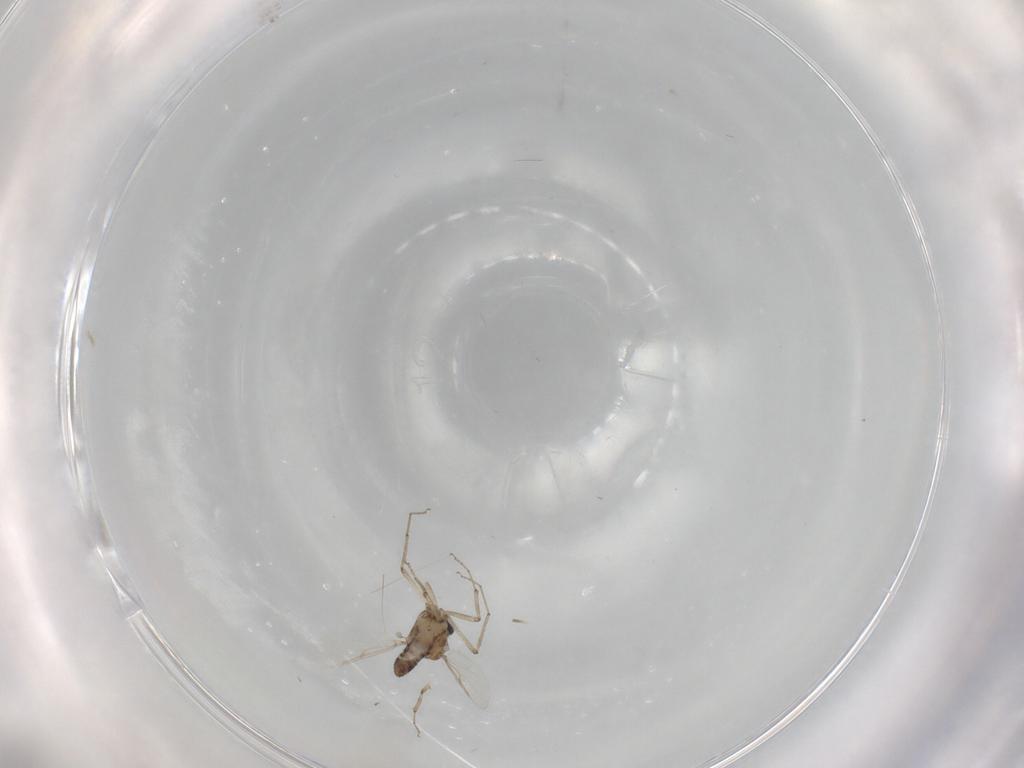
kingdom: Animalia
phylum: Arthropoda
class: Insecta
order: Diptera
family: Ceratopogonidae
